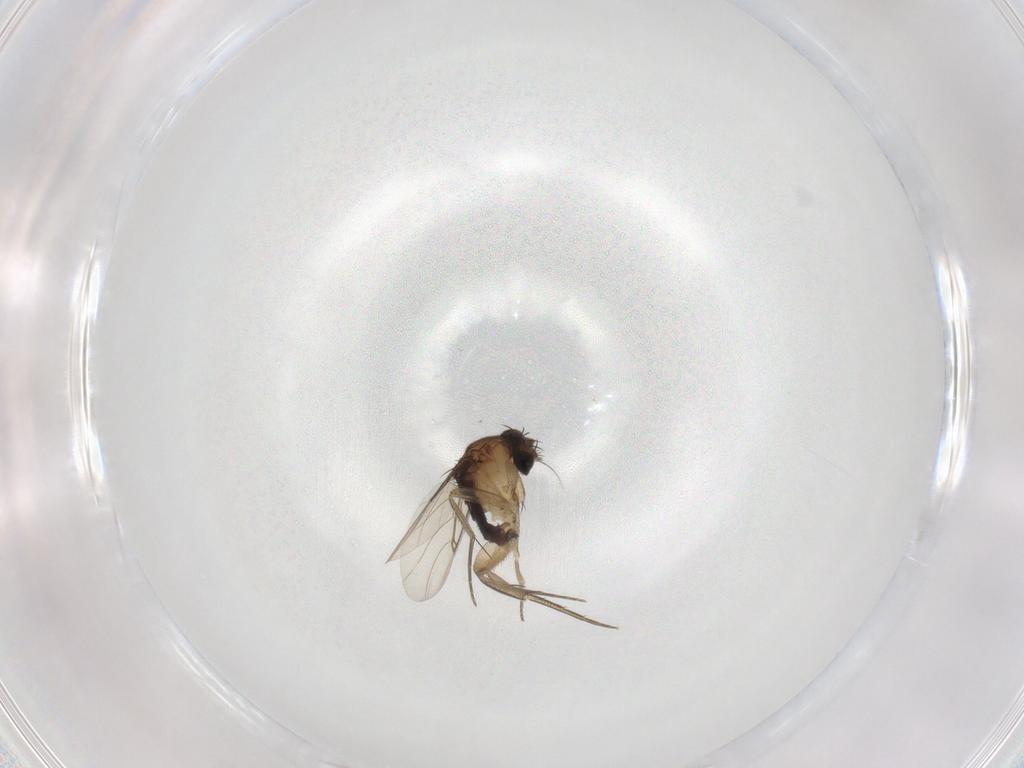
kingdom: Animalia
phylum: Arthropoda
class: Insecta
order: Diptera
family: Phoridae
